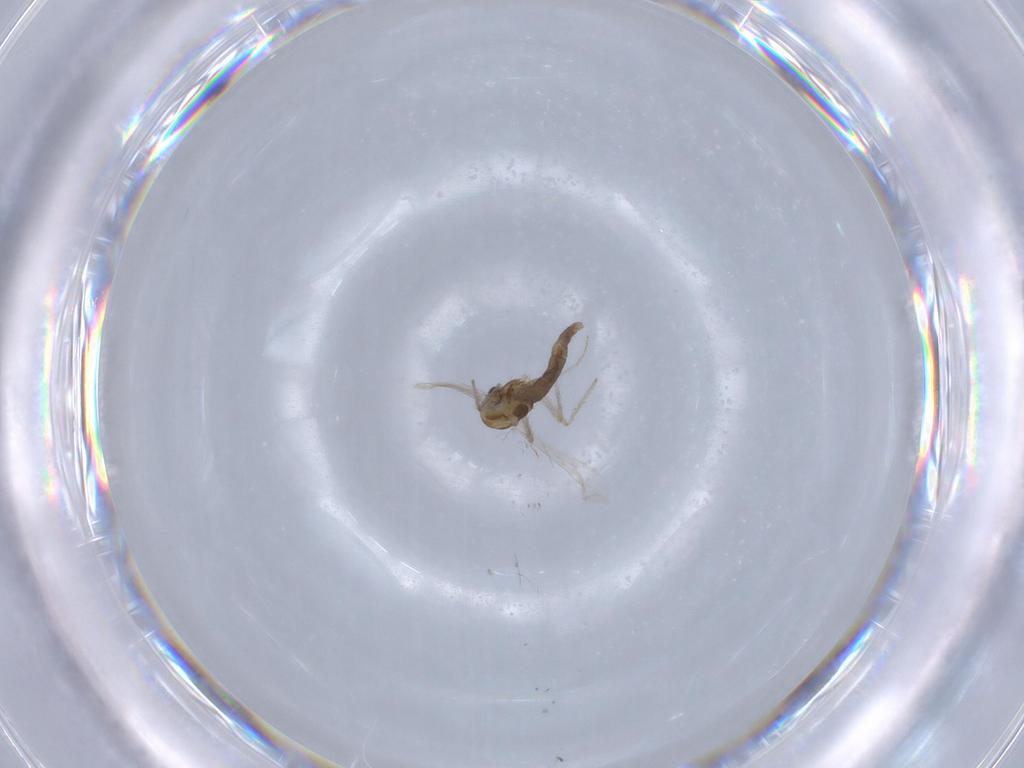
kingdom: Animalia
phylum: Arthropoda
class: Insecta
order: Diptera
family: Chironomidae
